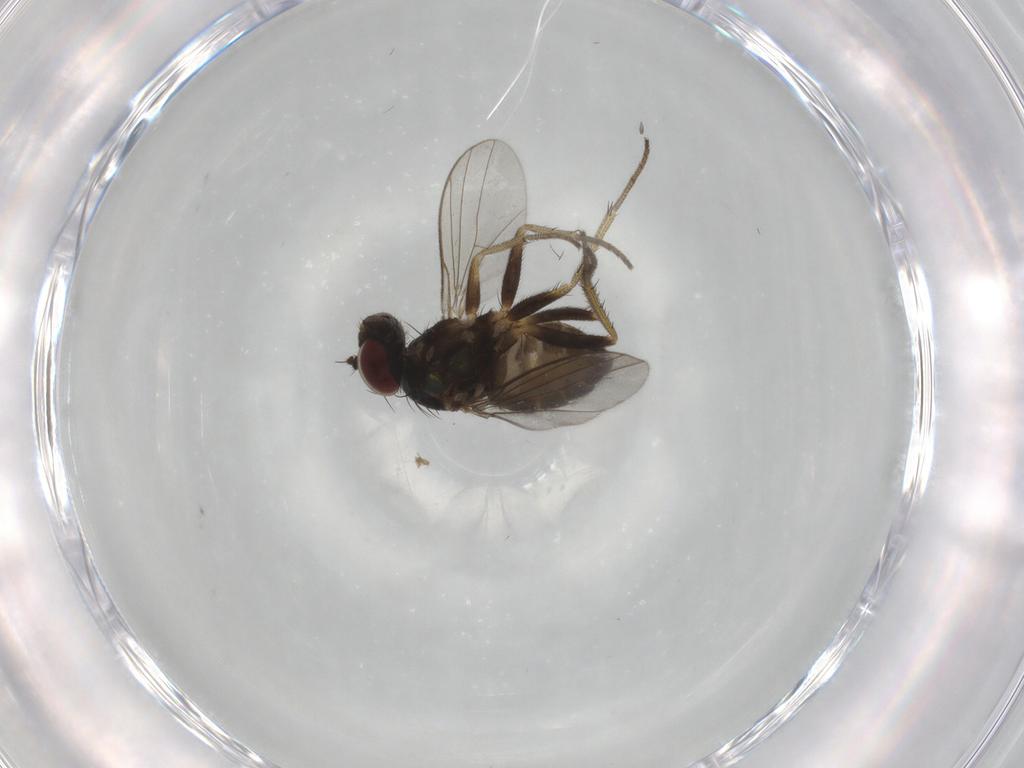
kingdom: Animalia
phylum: Arthropoda
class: Insecta
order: Diptera
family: Dolichopodidae
